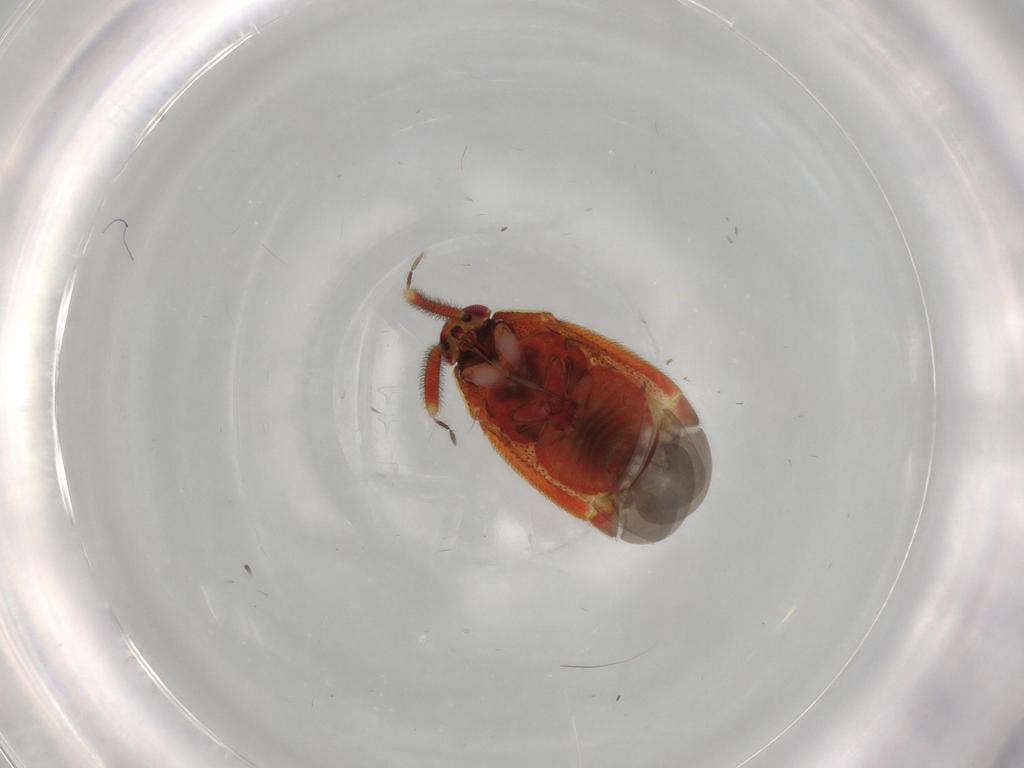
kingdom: Animalia
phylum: Arthropoda
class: Insecta
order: Hemiptera
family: Miridae
